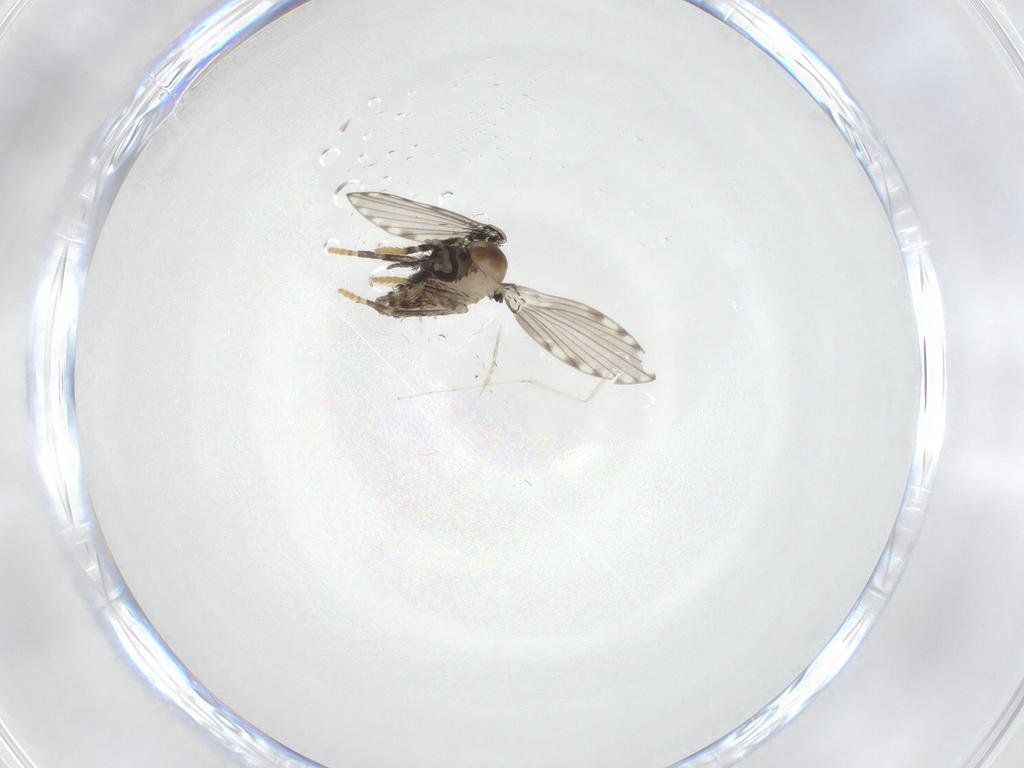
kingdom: Animalia
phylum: Arthropoda
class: Insecta
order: Diptera
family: Psychodidae
